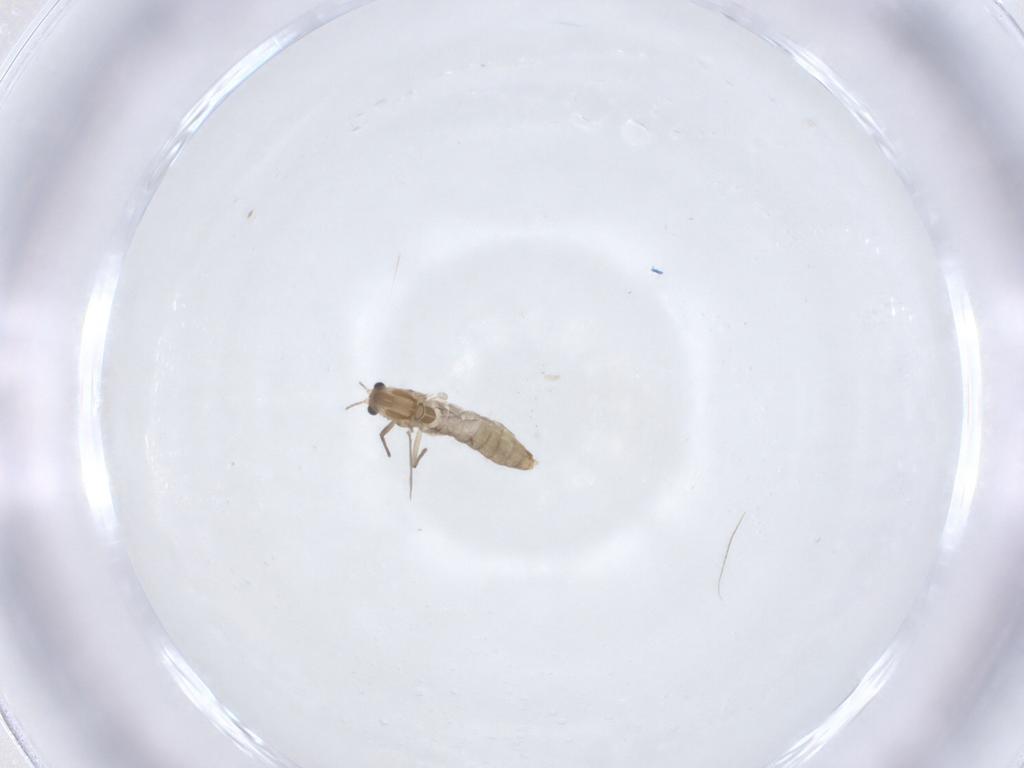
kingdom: Animalia
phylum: Arthropoda
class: Insecta
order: Diptera
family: Chironomidae
